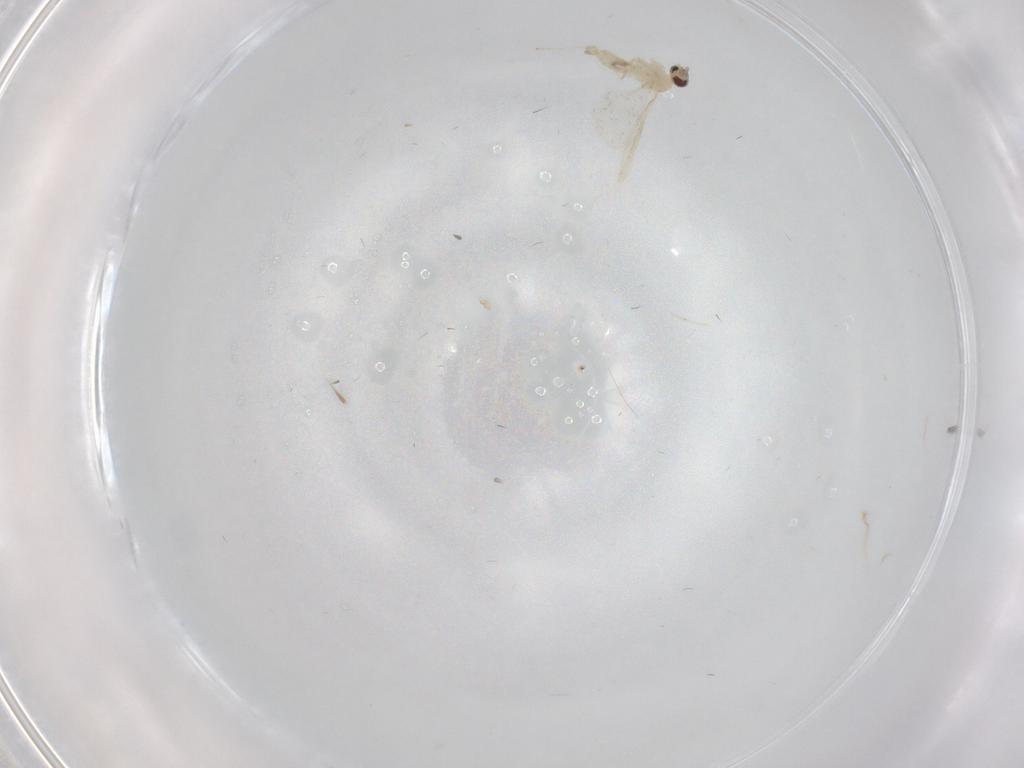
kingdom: Animalia
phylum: Arthropoda
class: Insecta
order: Diptera
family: Cecidomyiidae
